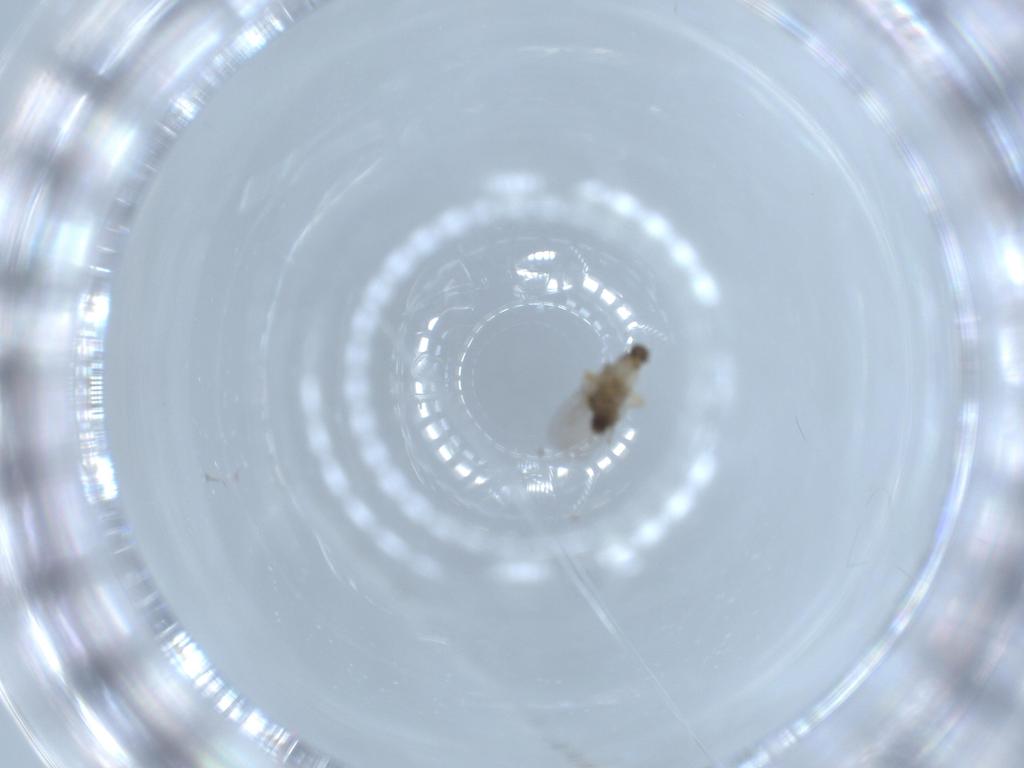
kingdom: Animalia
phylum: Arthropoda
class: Insecta
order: Diptera
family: Phoridae
